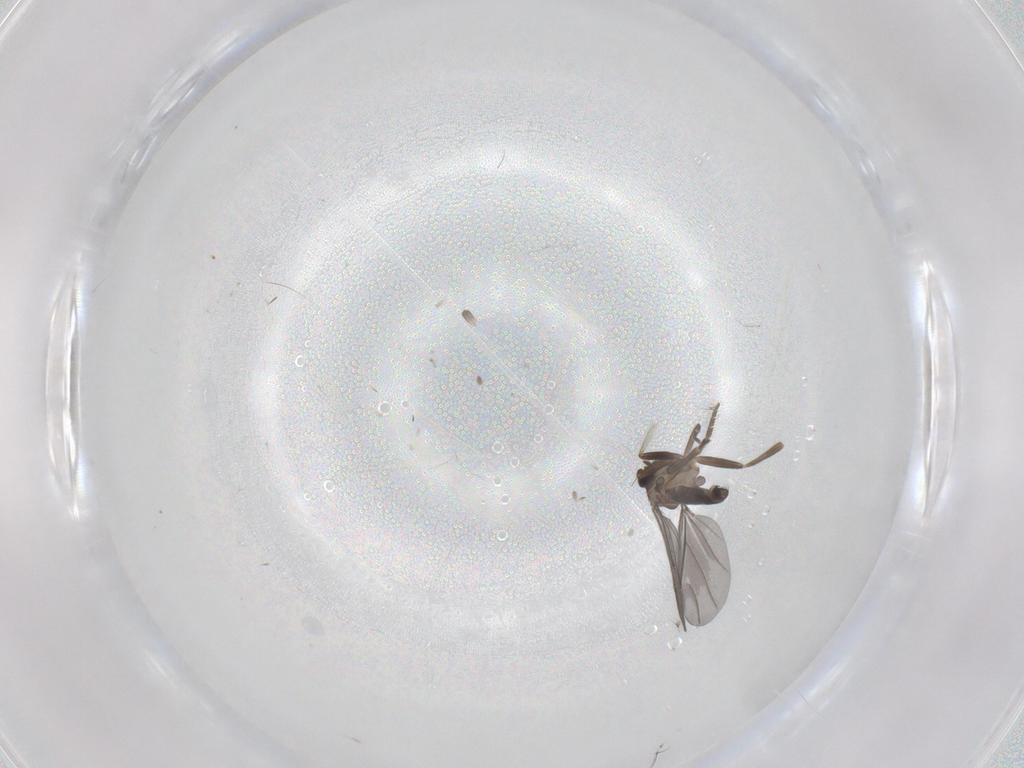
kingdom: Animalia
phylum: Arthropoda
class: Insecta
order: Diptera
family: Phoridae
